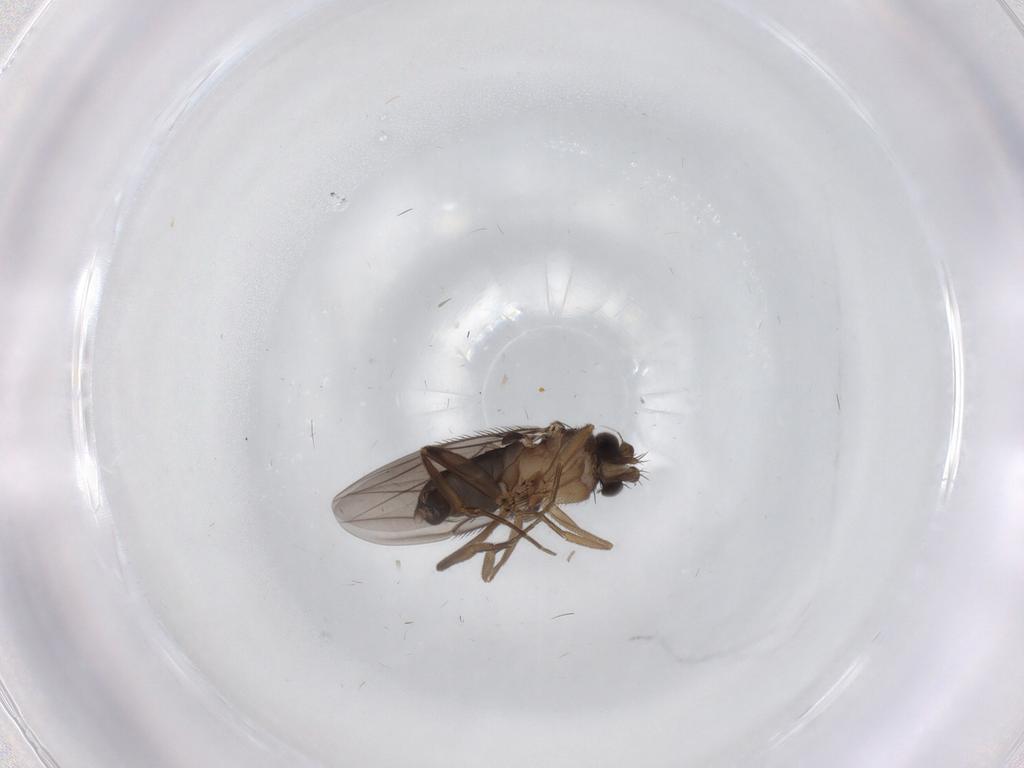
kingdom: Animalia
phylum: Arthropoda
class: Insecta
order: Diptera
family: Phoridae
